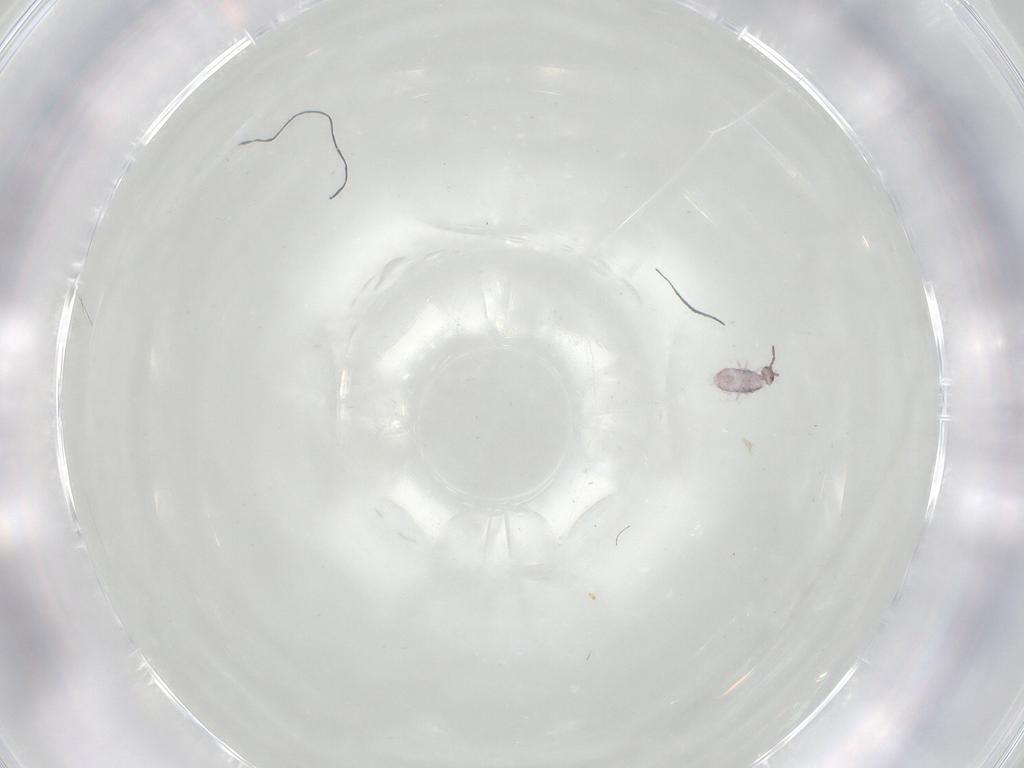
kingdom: Animalia
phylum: Arthropoda
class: Collembola
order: Entomobryomorpha
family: Entomobryidae
